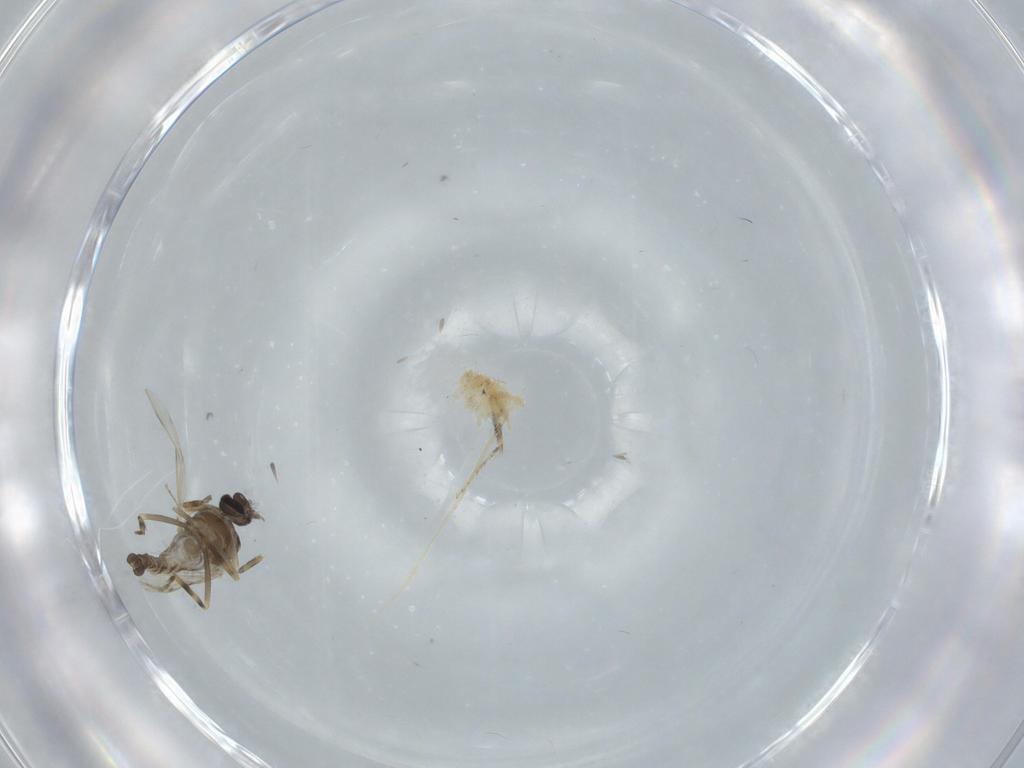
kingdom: Animalia
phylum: Arthropoda
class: Insecta
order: Diptera
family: Ceratopogonidae
